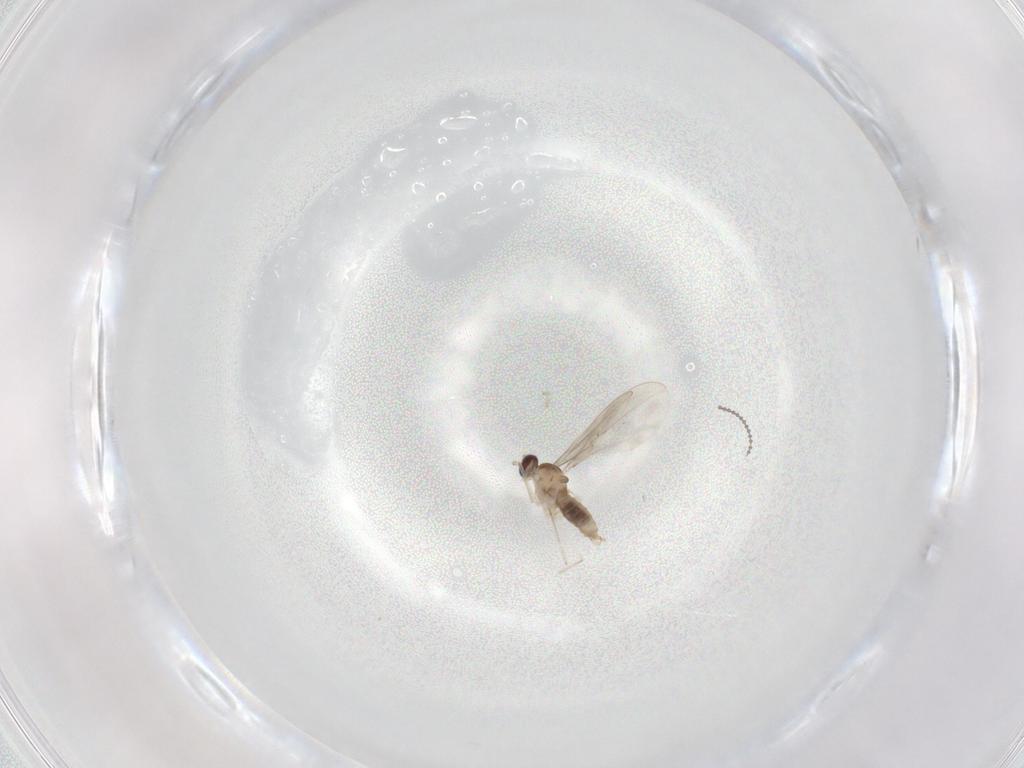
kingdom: Animalia
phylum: Arthropoda
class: Insecta
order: Diptera
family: Cecidomyiidae
